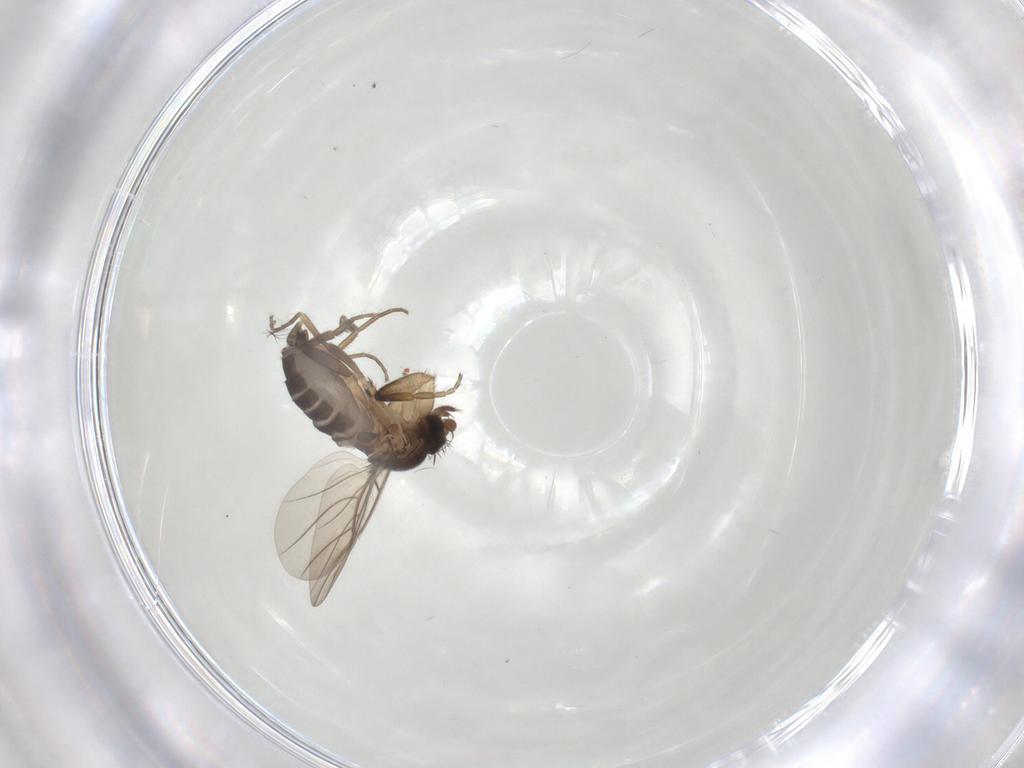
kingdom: Animalia
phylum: Arthropoda
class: Insecta
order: Diptera
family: Phoridae
